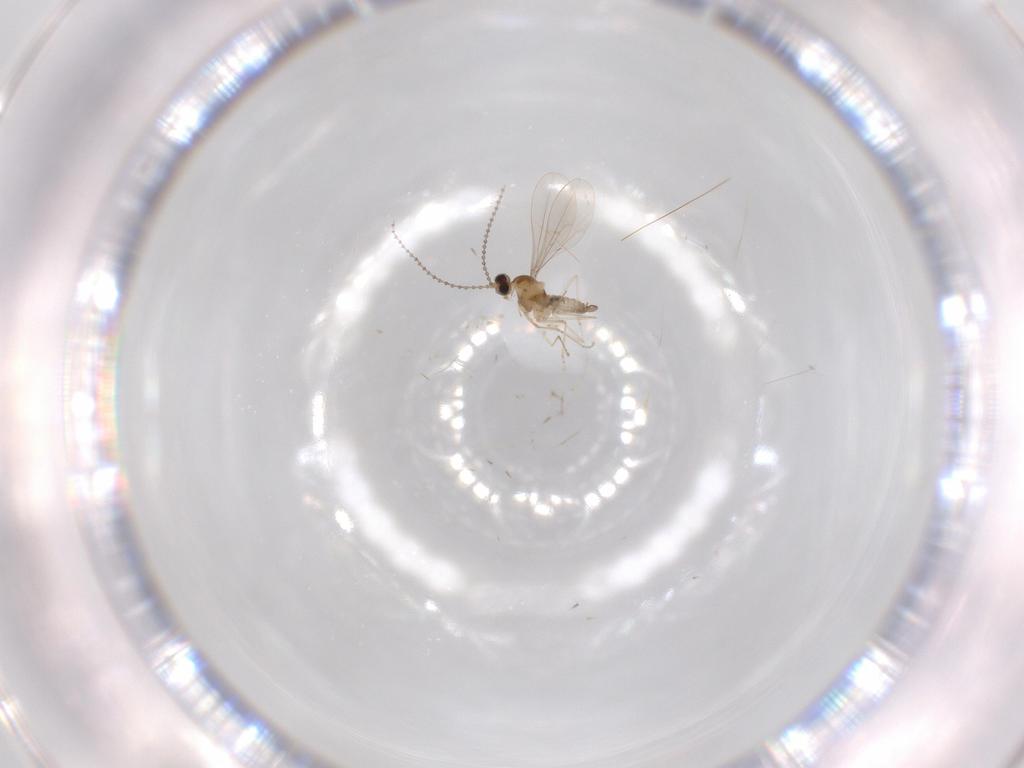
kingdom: Animalia
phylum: Arthropoda
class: Insecta
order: Diptera
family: Cecidomyiidae
